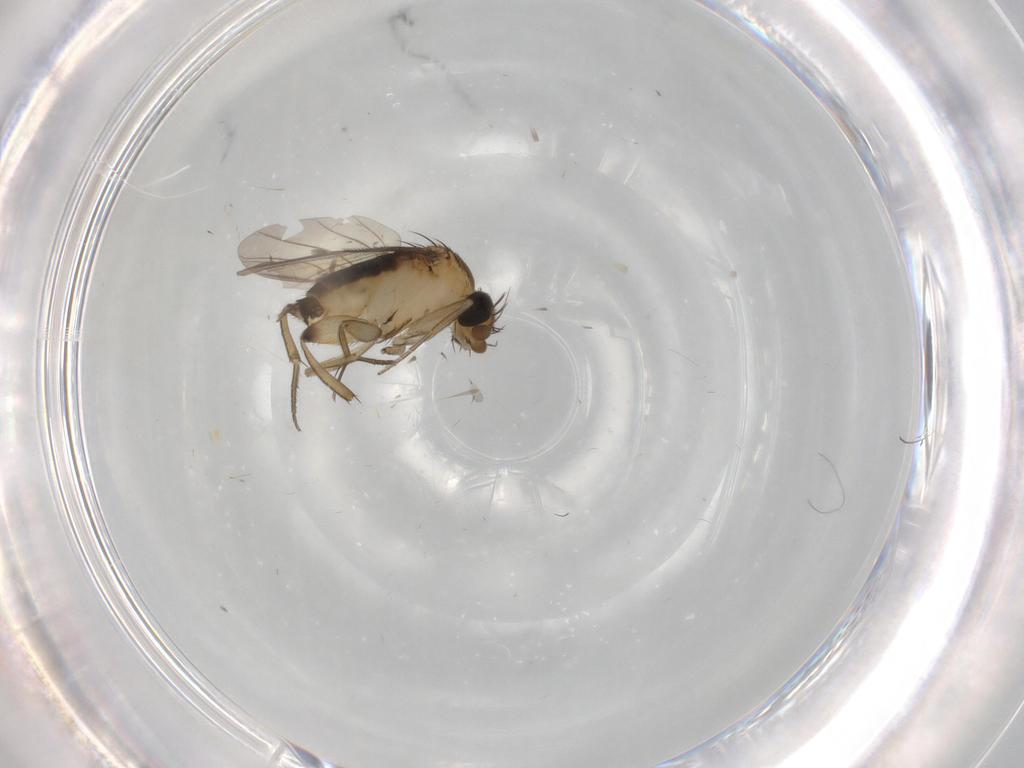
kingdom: Animalia
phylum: Arthropoda
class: Insecta
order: Diptera
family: Phoridae
